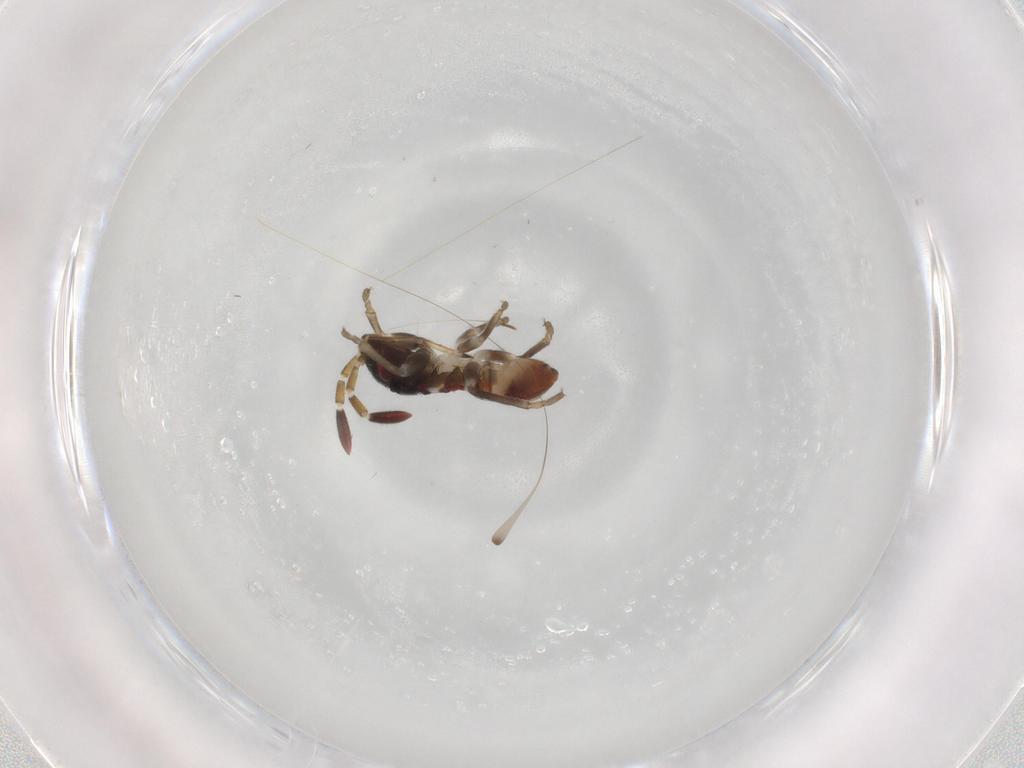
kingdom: Animalia
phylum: Arthropoda
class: Insecta
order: Hemiptera
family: Rhyparochromidae
